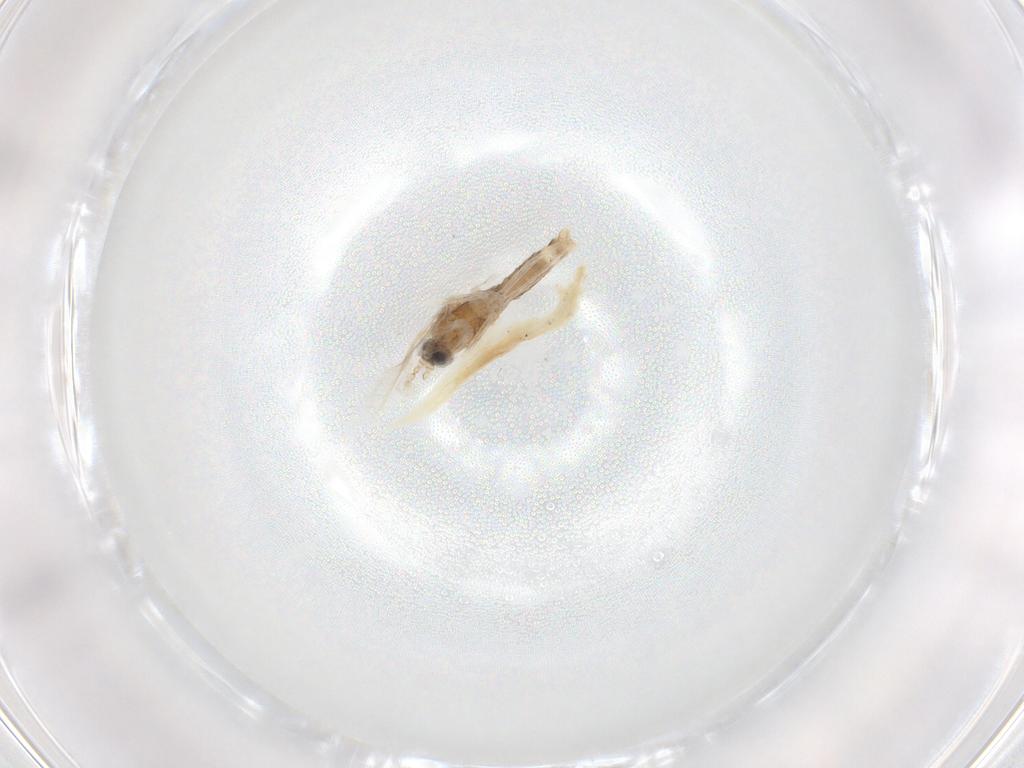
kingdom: Animalia
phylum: Arthropoda
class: Insecta
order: Diptera
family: Cecidomyiidae
